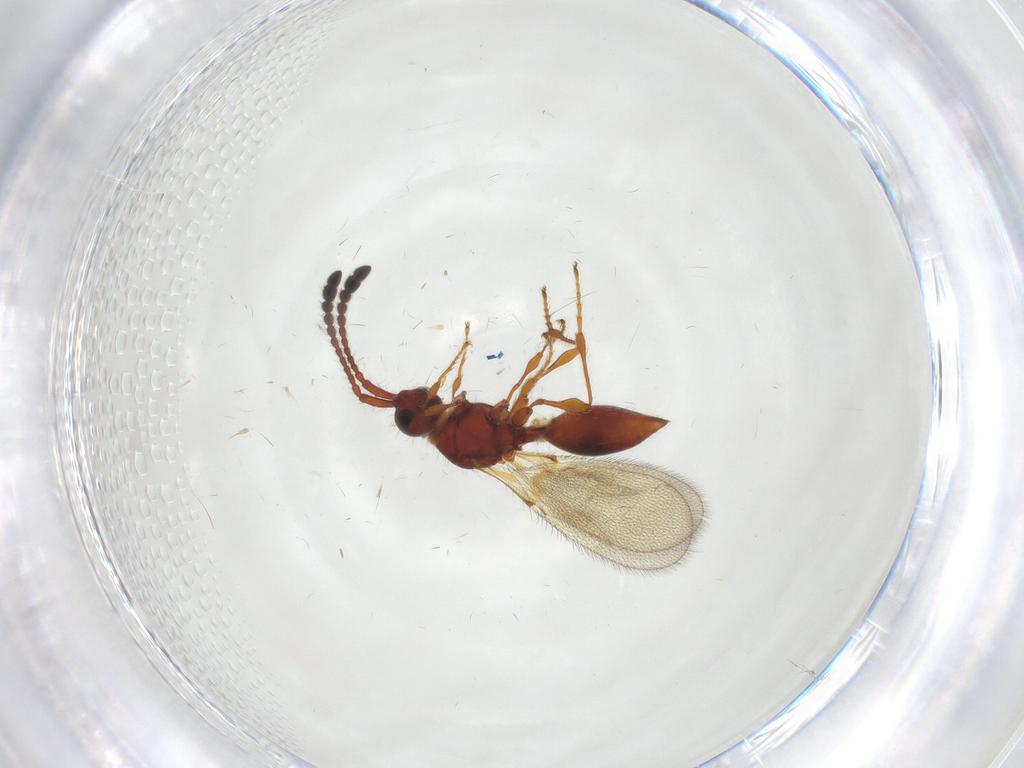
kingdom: Animalia
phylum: Arthropoda
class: Insecta
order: Hymenoptera
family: Diapriidae
